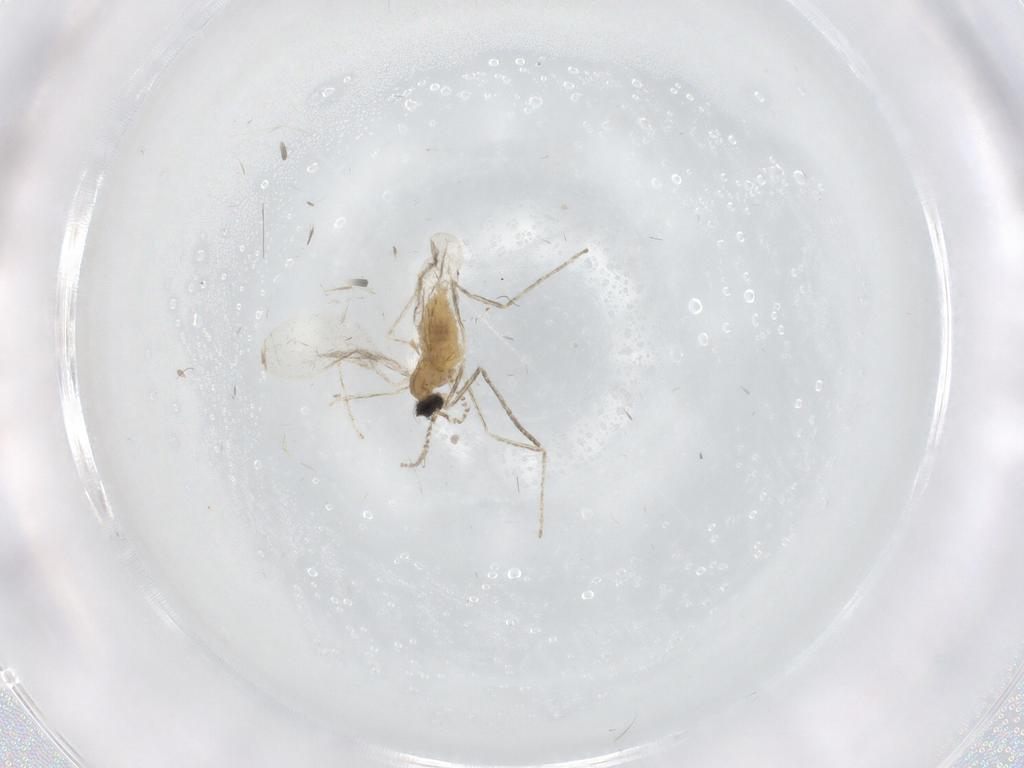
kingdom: Animalia
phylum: Arthropoda
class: Insecta
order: Diptera
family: Cecidomyiidae
